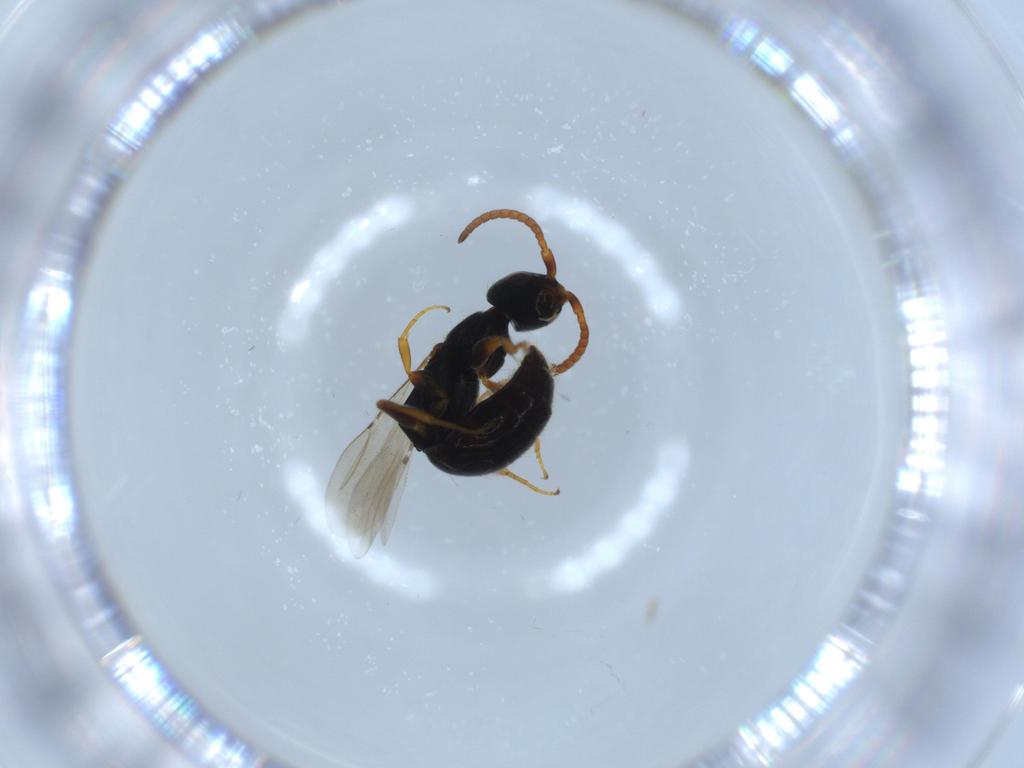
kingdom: Animalia
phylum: Arthropoda
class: Insecta
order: Hymenoptera
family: Bethylidae
